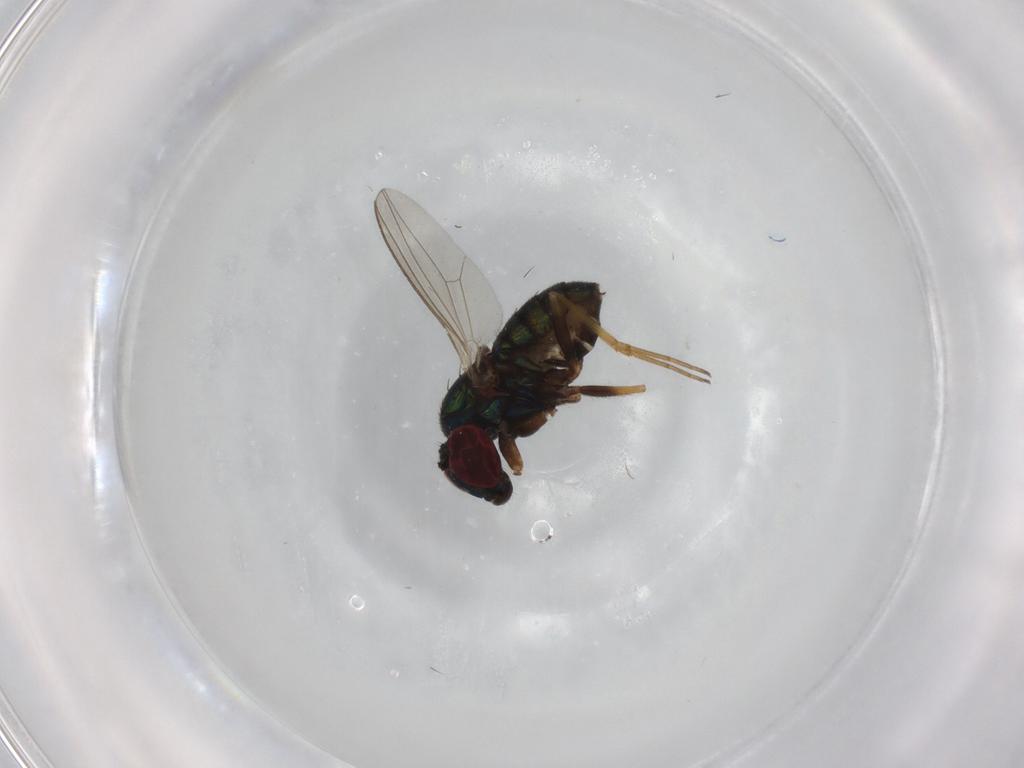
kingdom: Animalia
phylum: Arthropoda
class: Insecta
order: Diptera
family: Dolichopodidae
